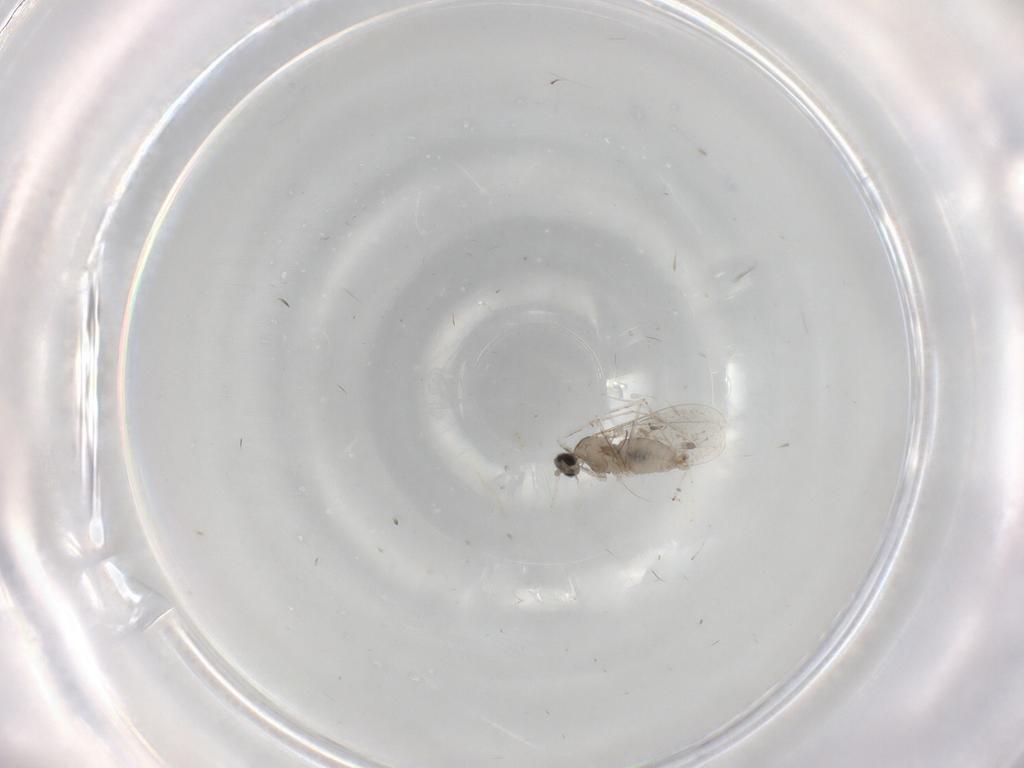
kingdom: Animalia
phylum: Arthropoda
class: Insecta
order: Diptera
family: Cecidomyiidae
